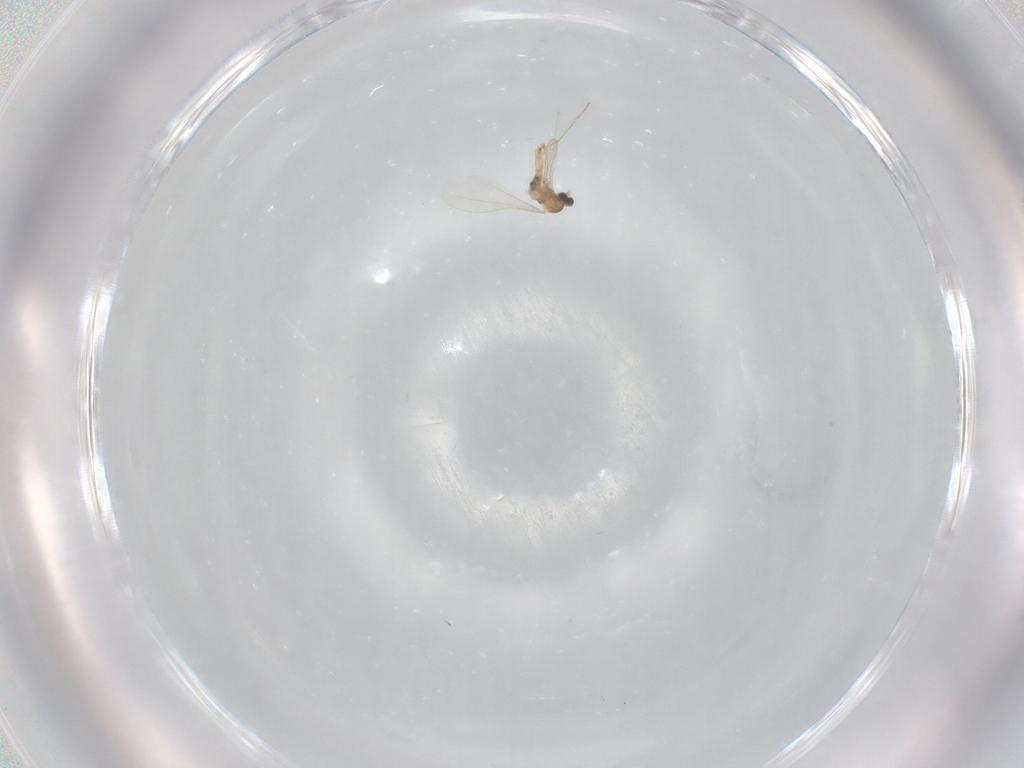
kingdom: Animalia
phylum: Arthropoda
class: Insecta
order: Diptera
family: Cecidomyiidae
